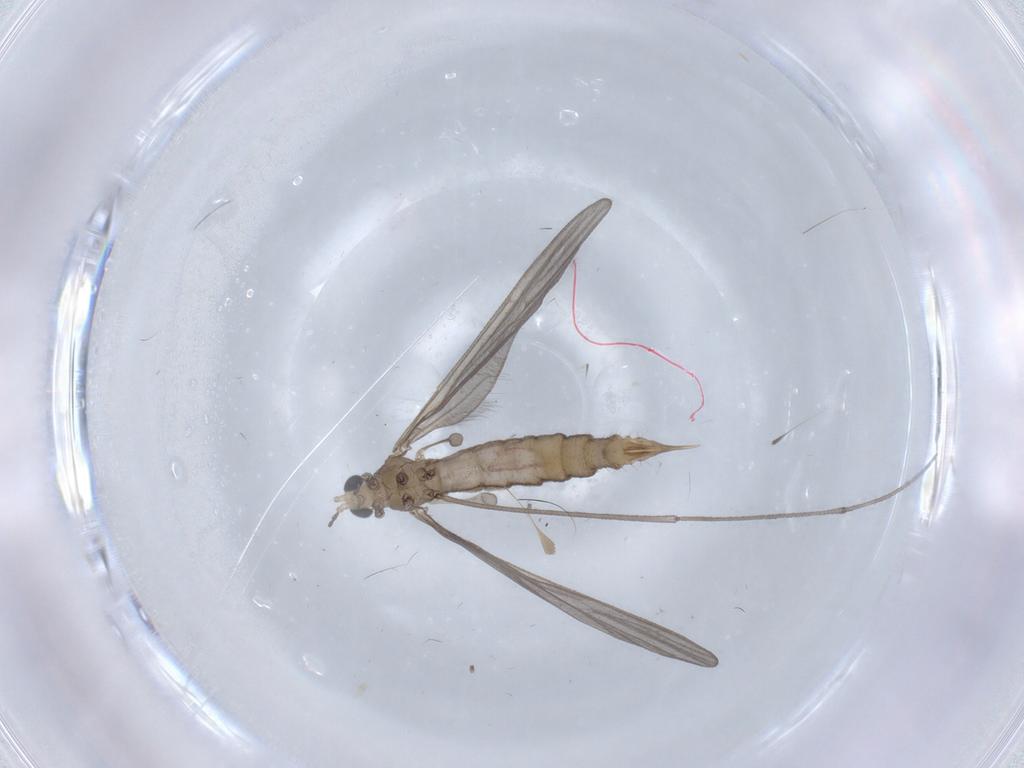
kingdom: Animalia
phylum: Arthropoda
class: Insecta
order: Diptera
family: Limoniidae
